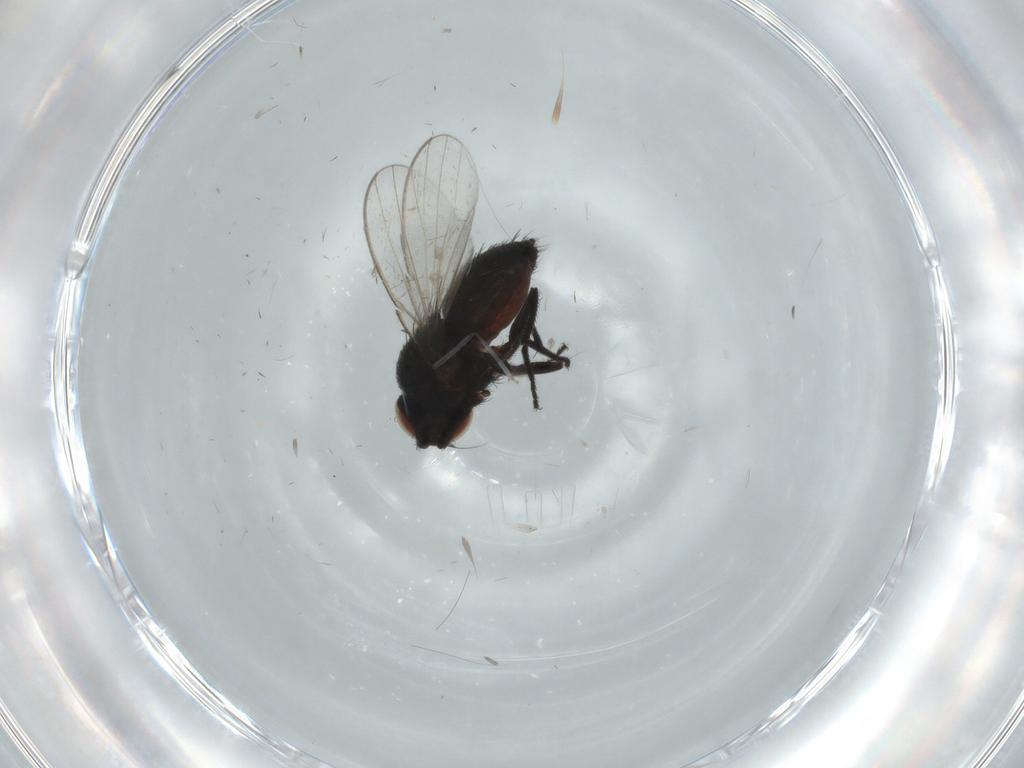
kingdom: Animalia
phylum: Arthropoda
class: Insecta
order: Diptera
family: Milichiidae
